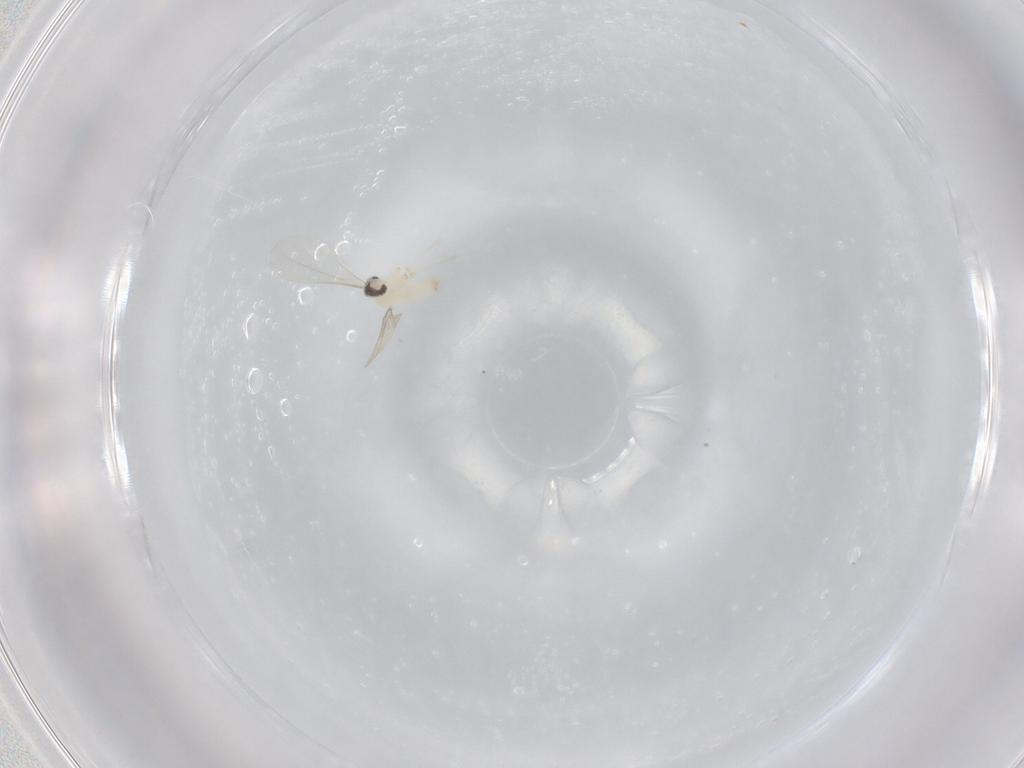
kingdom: Animalia
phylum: Arthropoda
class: Insecta
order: Diptera
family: Cecidomyiidae
